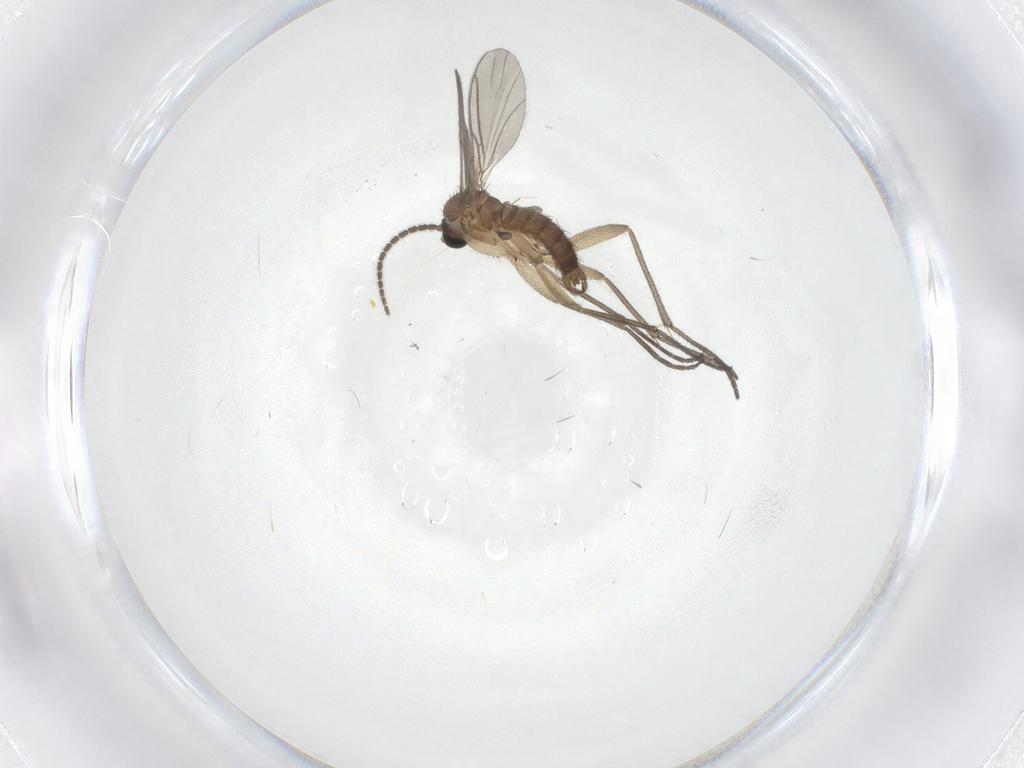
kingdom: Animalia
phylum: Arthropoda
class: Insecta
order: Diptera
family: Sciaridae
